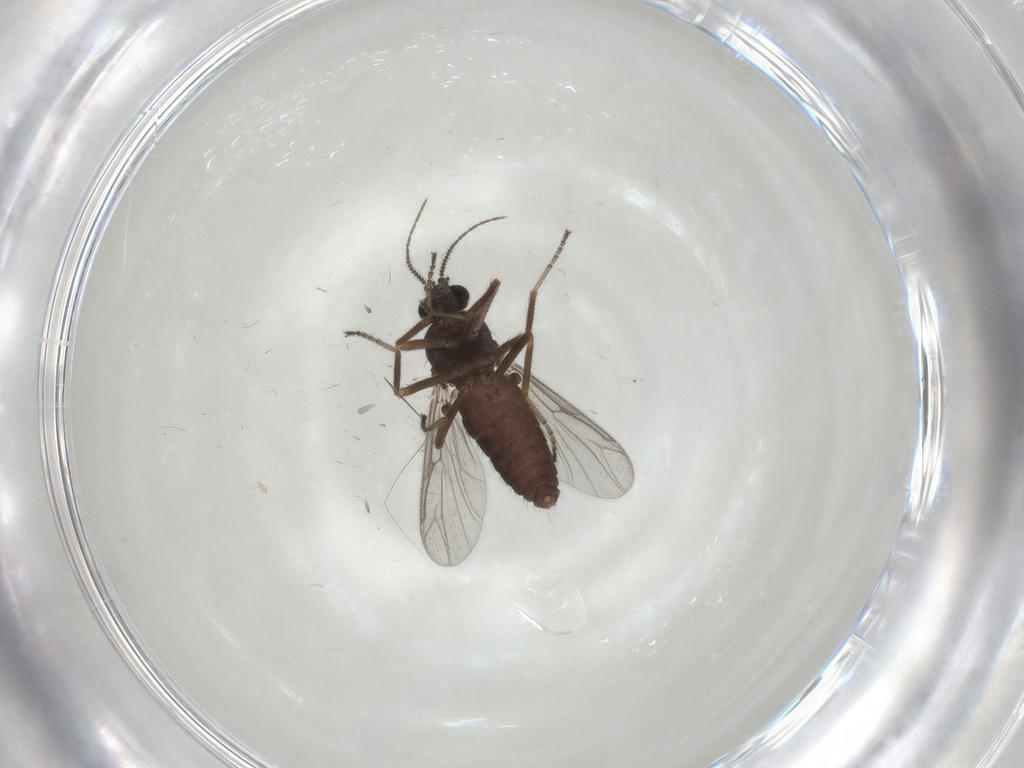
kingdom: Animalia
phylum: Arthropoda
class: Insecta
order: Diptera
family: Ceratopogonidae
